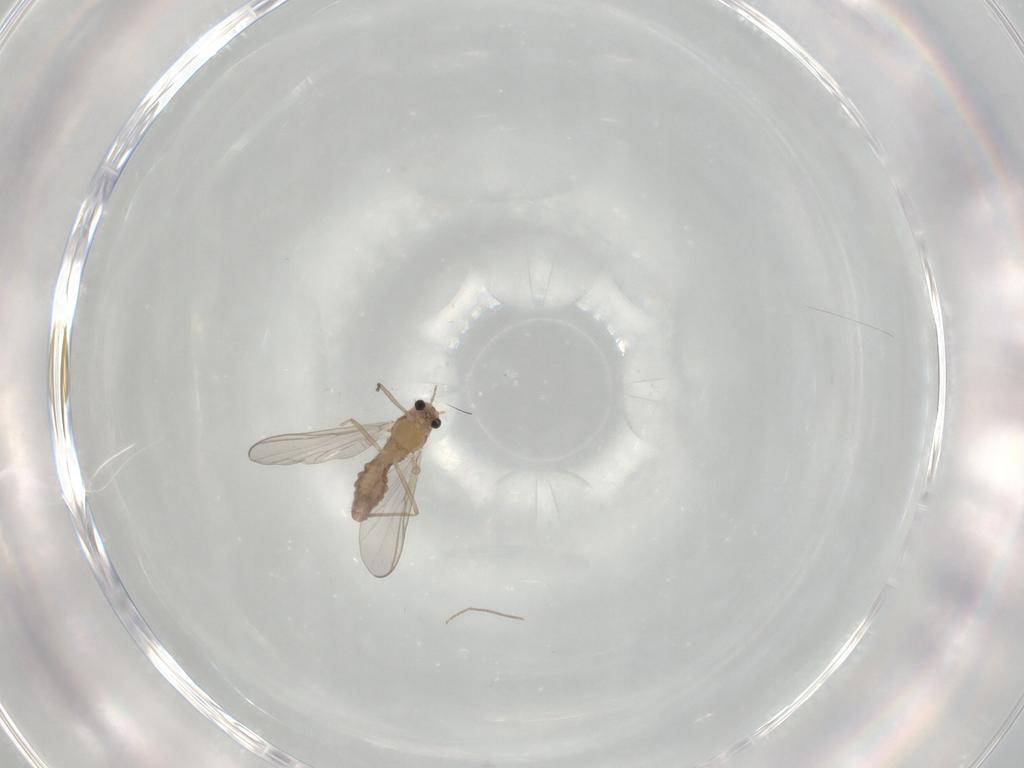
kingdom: Animalia
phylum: Arthropoda
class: Insecta
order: Diptera
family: Chironomidae
